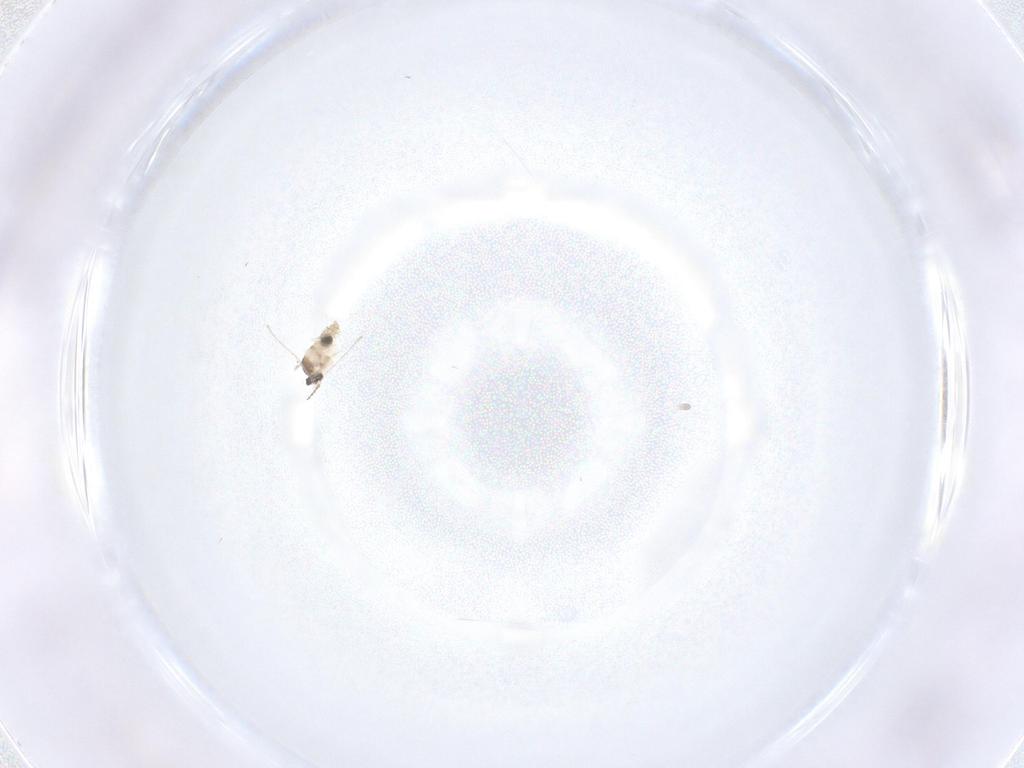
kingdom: Animalia
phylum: Arthropoda
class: Insecta
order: Diptera
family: Cecidomyiidae
